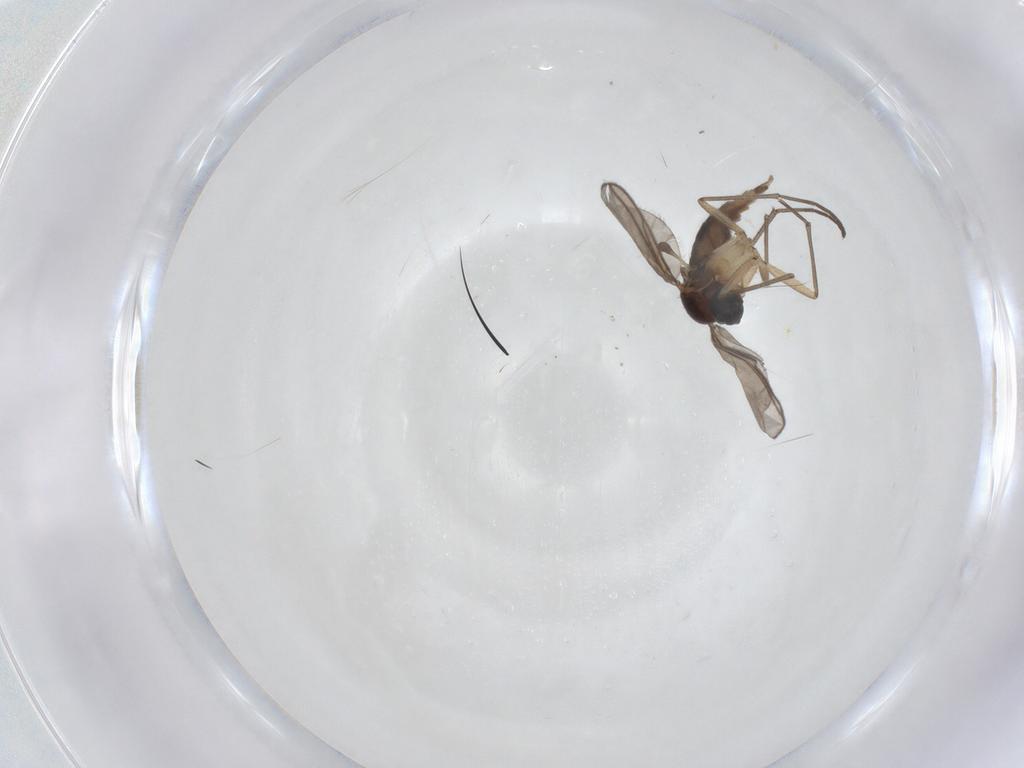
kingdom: Animalia
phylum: Arthropoda
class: Insecta
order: Diptera
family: Sciaridae
